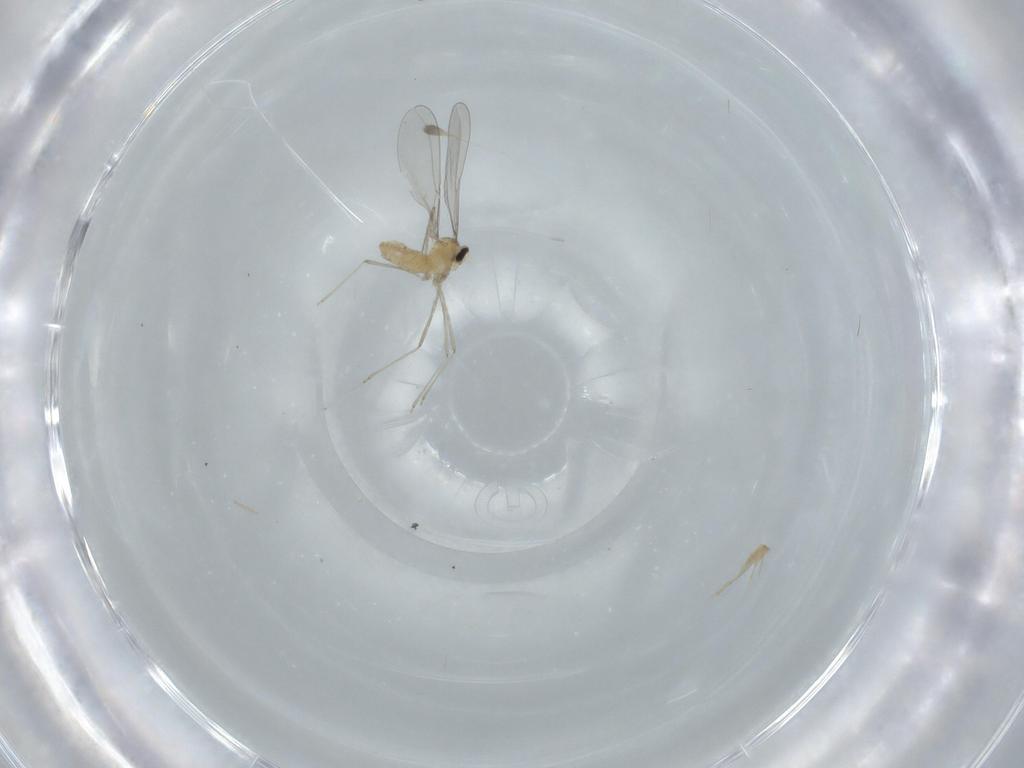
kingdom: Animalia
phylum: Arthropoda
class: Insecta
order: Diptera
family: Cecidomyiidae
